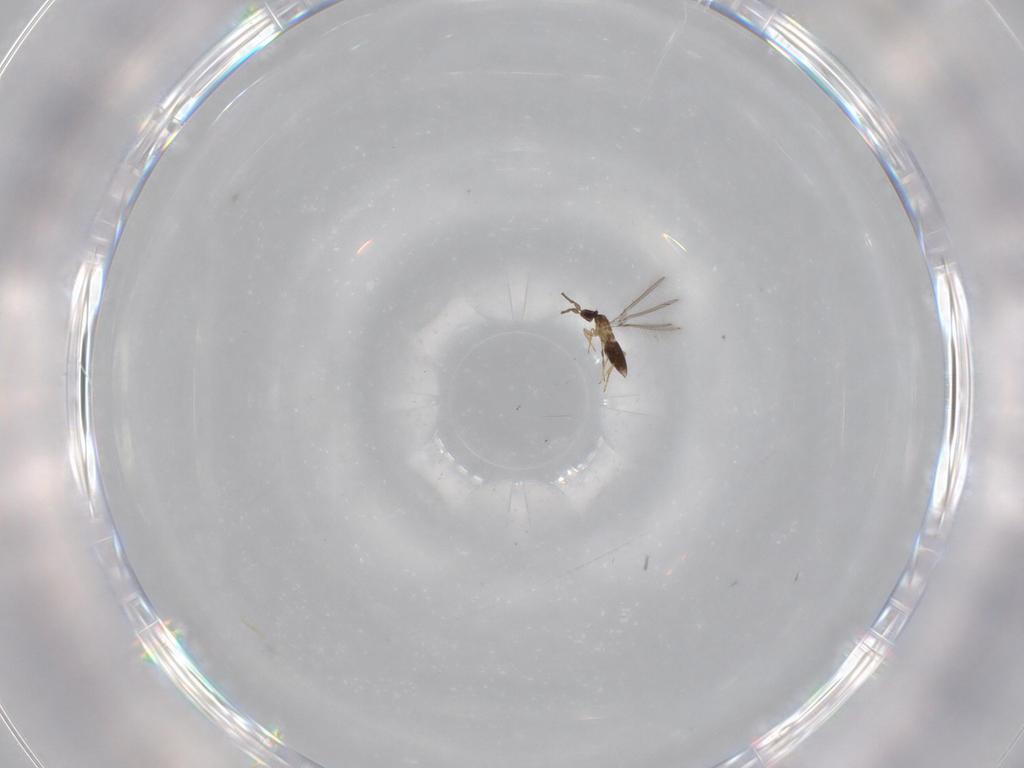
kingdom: Animalia
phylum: Arthropoda
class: Insecta
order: Hymenoptera
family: Mymaridae
